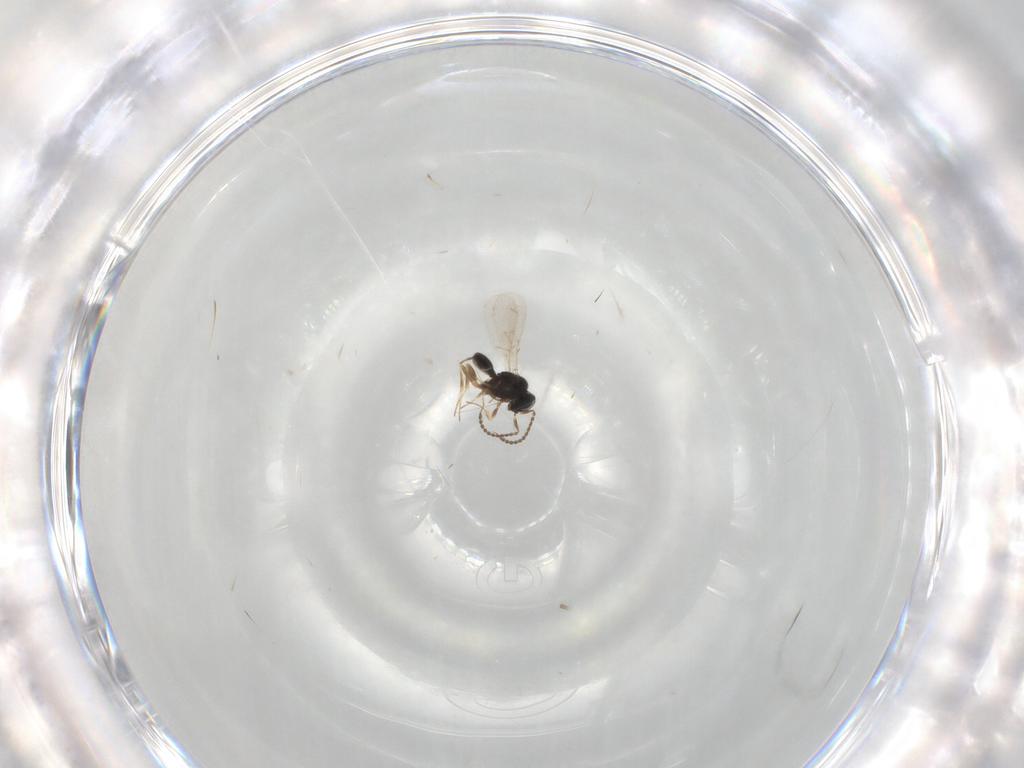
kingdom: Animalia
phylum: Arthropoda
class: Insecta
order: Hymenoptera
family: Scelionidae
